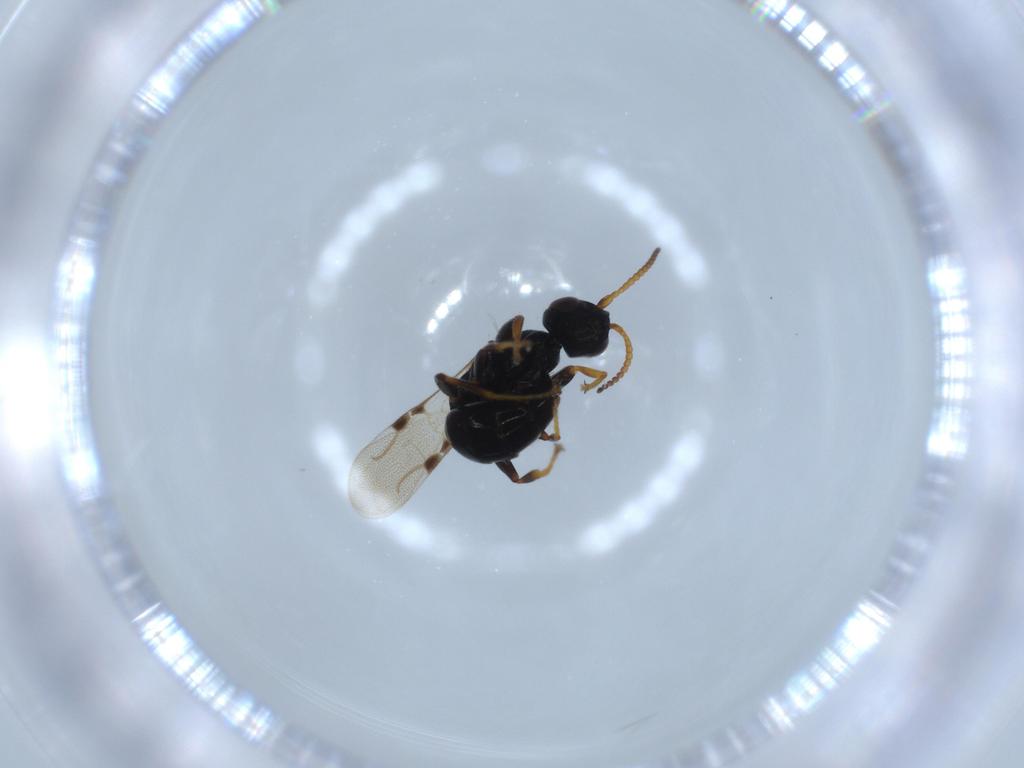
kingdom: Animalia
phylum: Arthropoda
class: Insecta
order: Hymenoptera
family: Bethylidae
